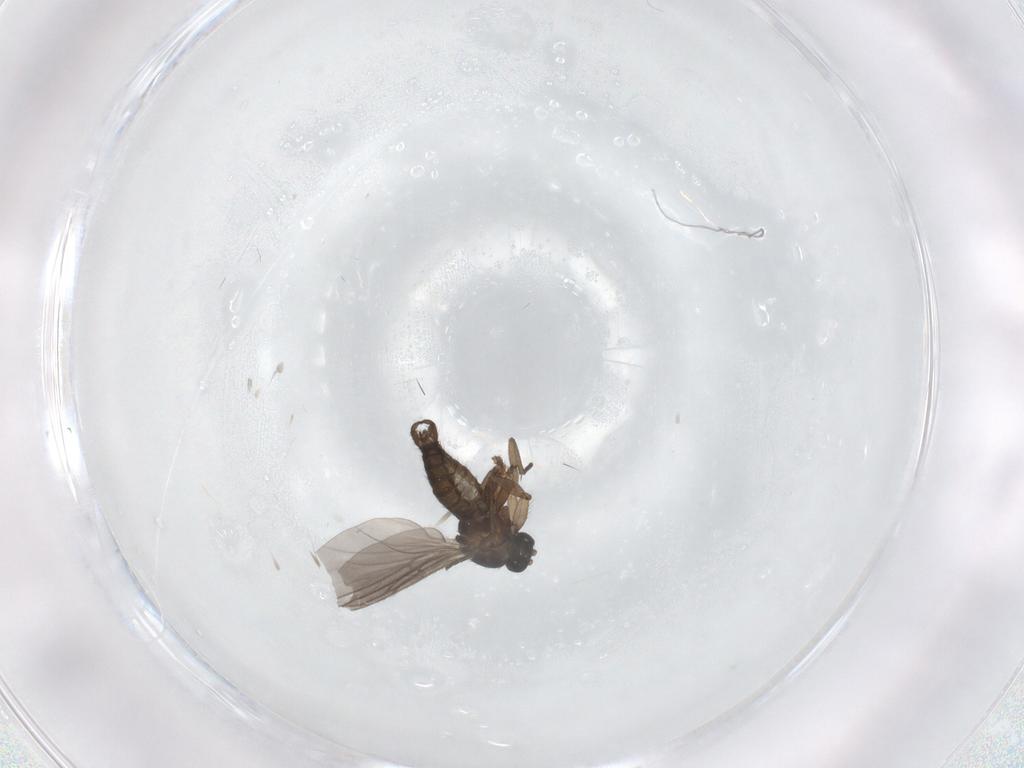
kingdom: Animalia
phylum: Arthropoda
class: Insecta
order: Diptera
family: Sciaridae
